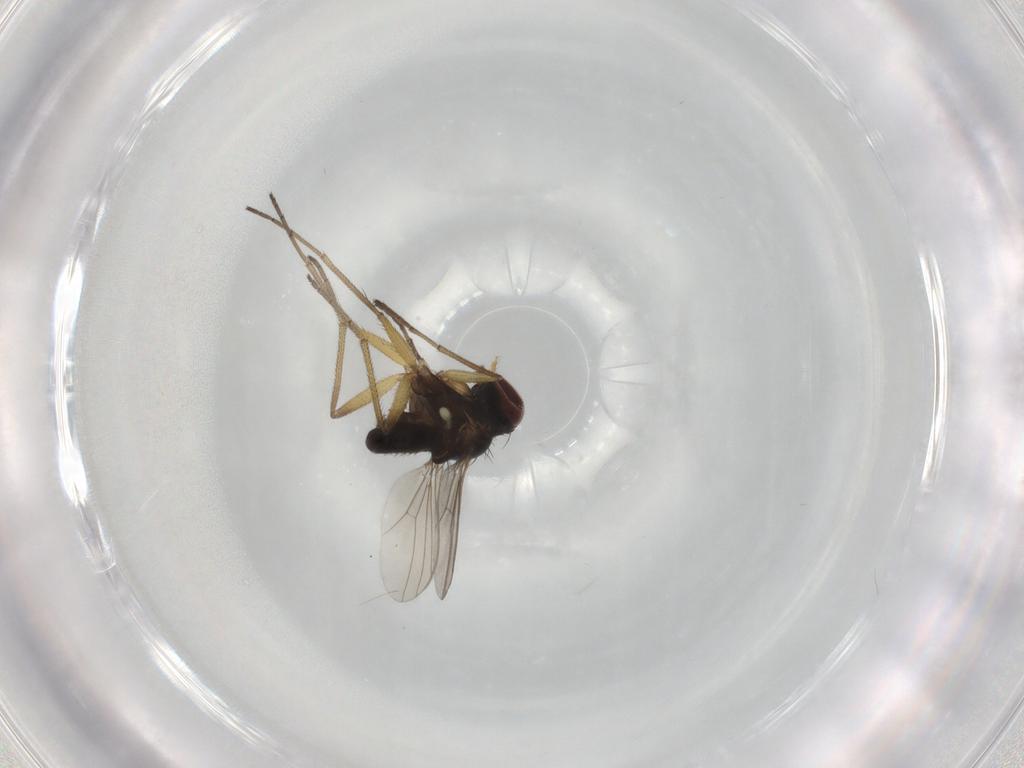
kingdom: Animalia
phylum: Arthropoda
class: Insecta
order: Diptera
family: Dolichopodidae
